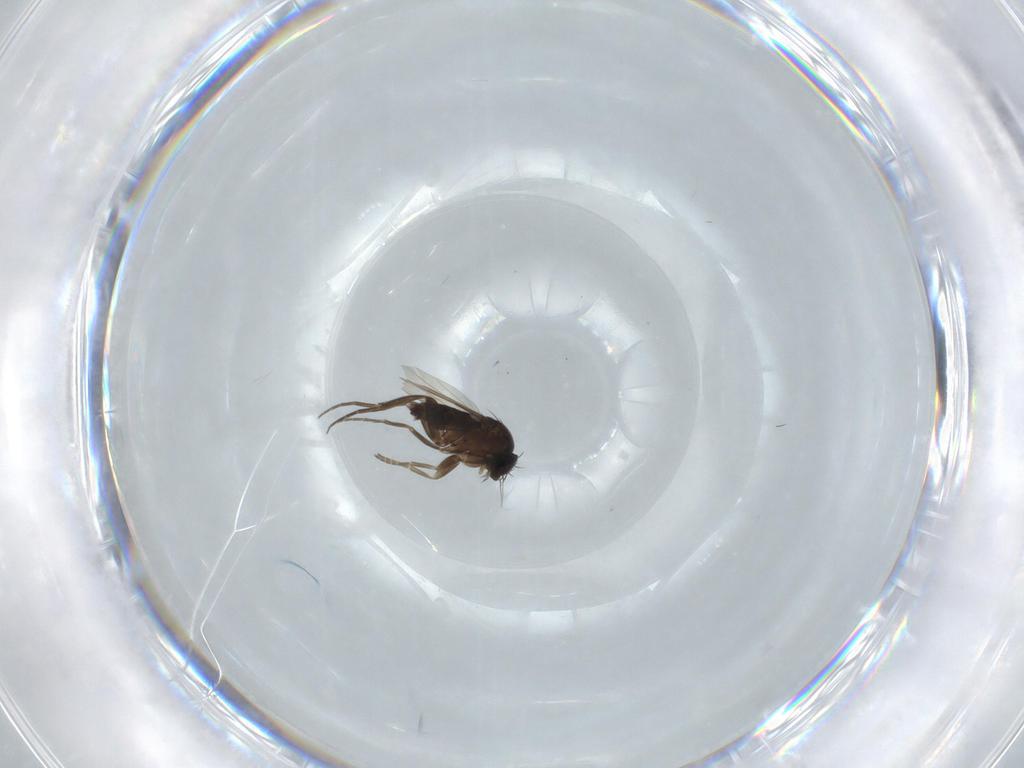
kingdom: Animalia
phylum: Arthropoda
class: Insecta
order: Diptera
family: Phoridae
